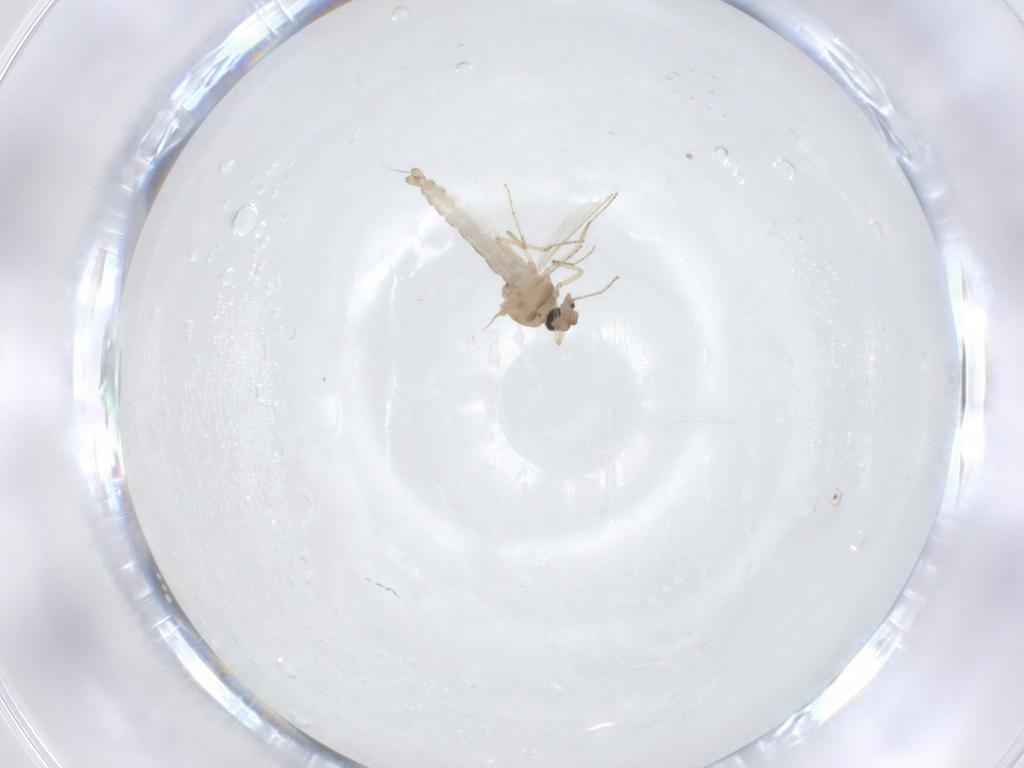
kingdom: Animalia
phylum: Arthropoda
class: Insecta
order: Diptera
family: Ceratopogonidae
